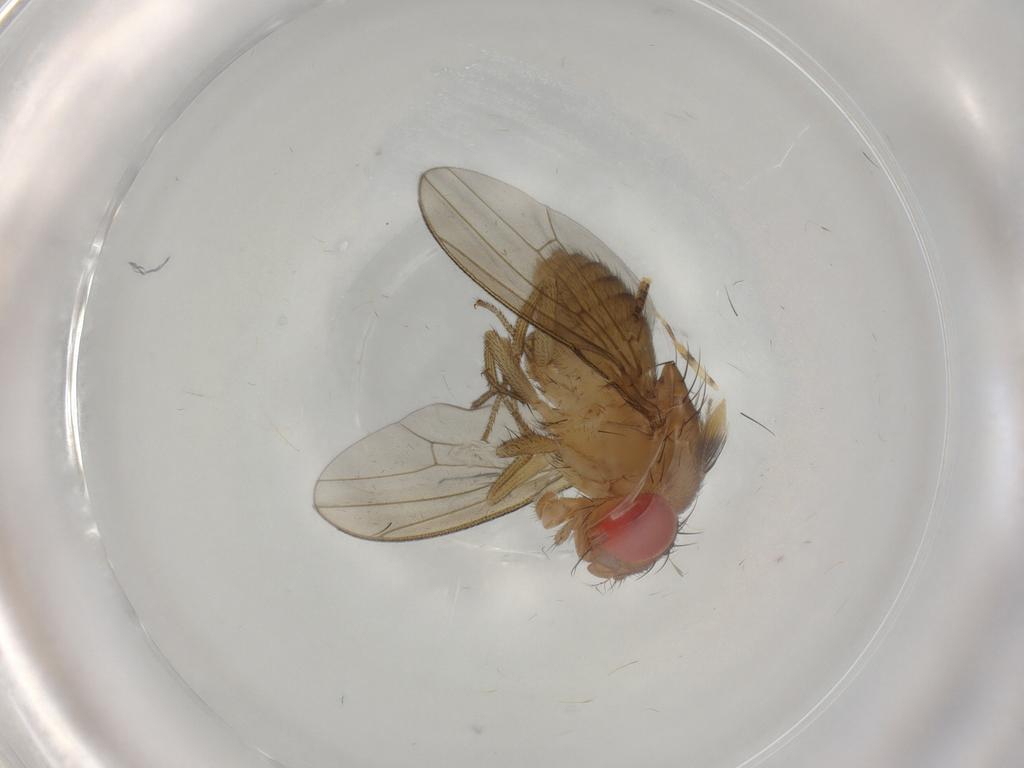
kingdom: Animalia
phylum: Arthropoda
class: Insecta
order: Diptera
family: Drosophilidae
